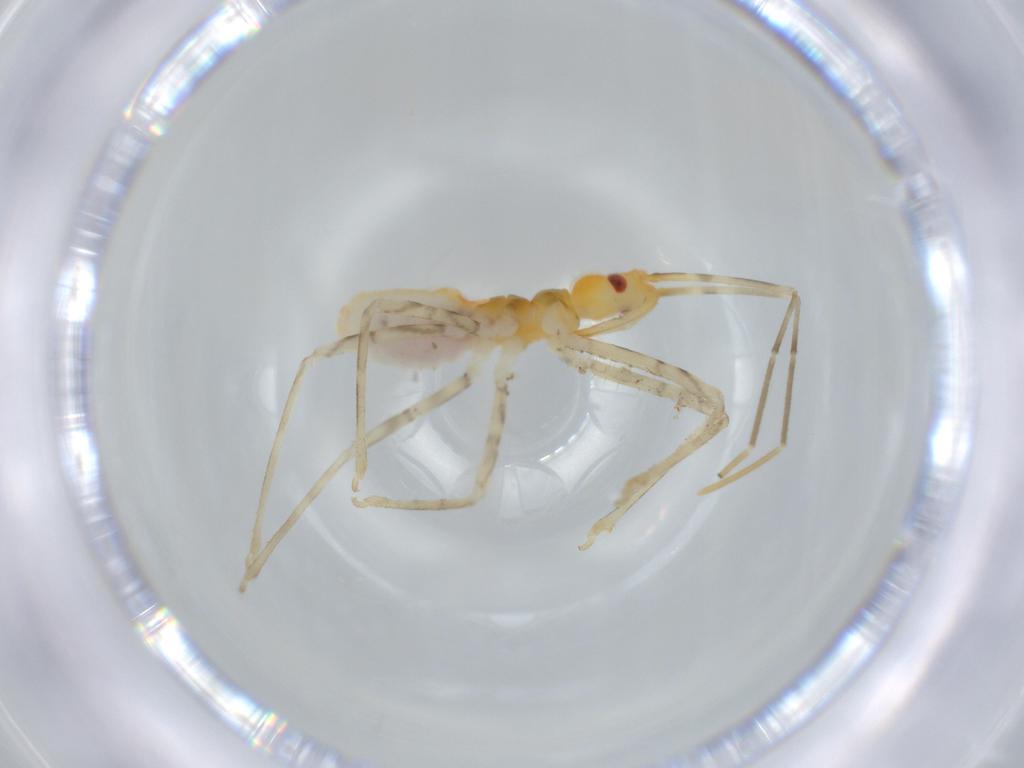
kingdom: Animalia
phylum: Arthropoda
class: Insecta
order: Hemiptera
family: Reduviidae
